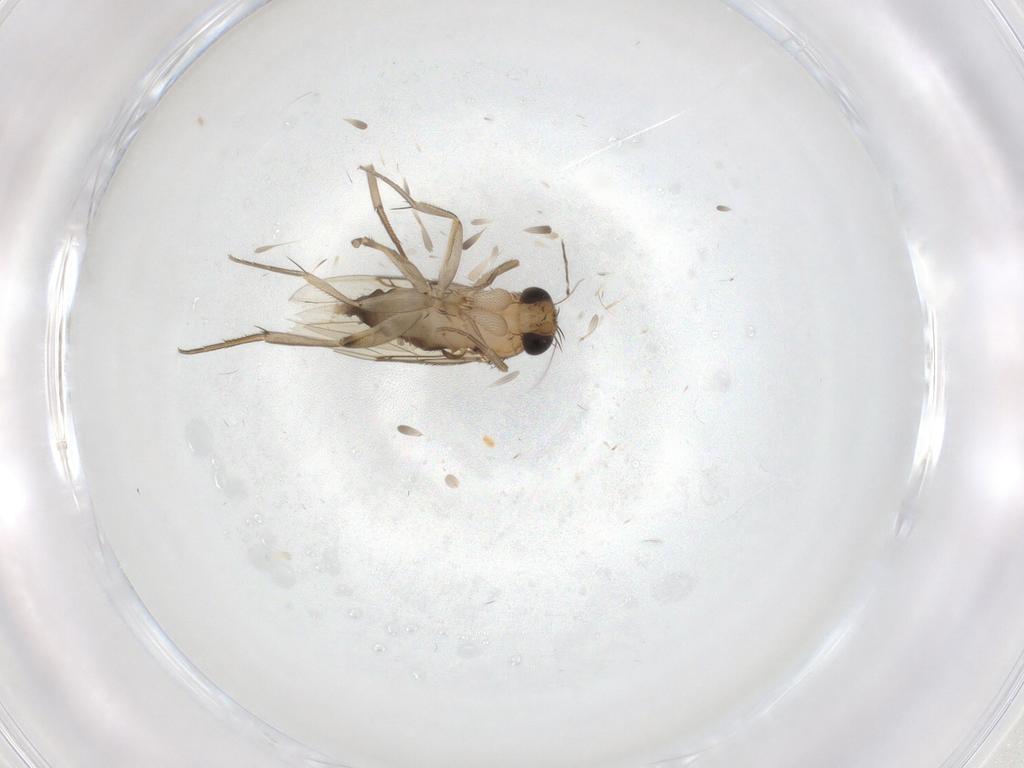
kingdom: Animalia
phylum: Arthropoda
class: Insecta
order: Diptera
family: Phoridae
